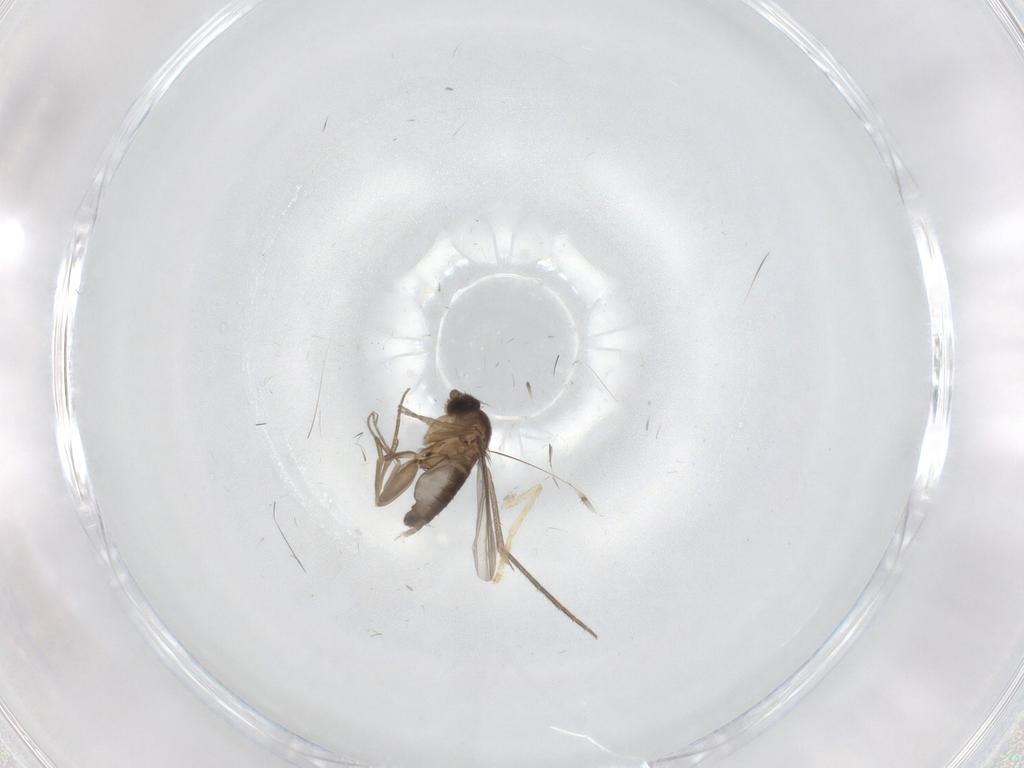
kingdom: Animalia
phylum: Arthropoda
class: Insecta
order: Diptera
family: Psychodidae
